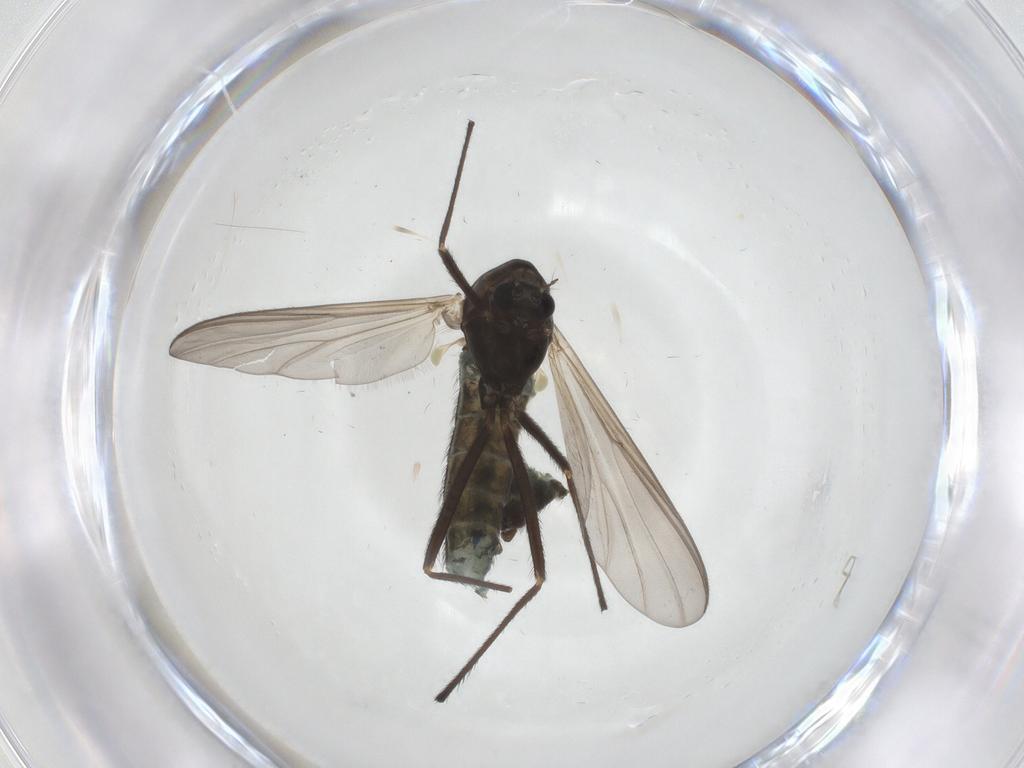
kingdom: Animalia
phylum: Arthropoda
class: Insecta
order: Diptera
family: Chironomidae
